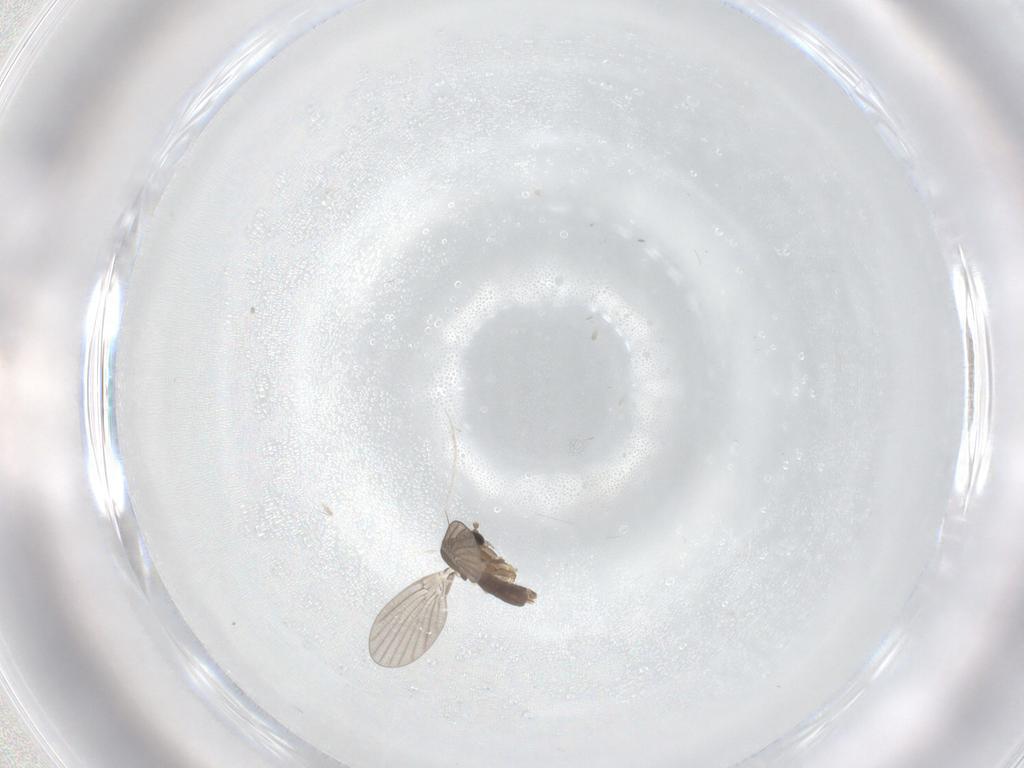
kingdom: Animalia
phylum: Arthropoda
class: Insecta
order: Diptera
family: Psychodidae
